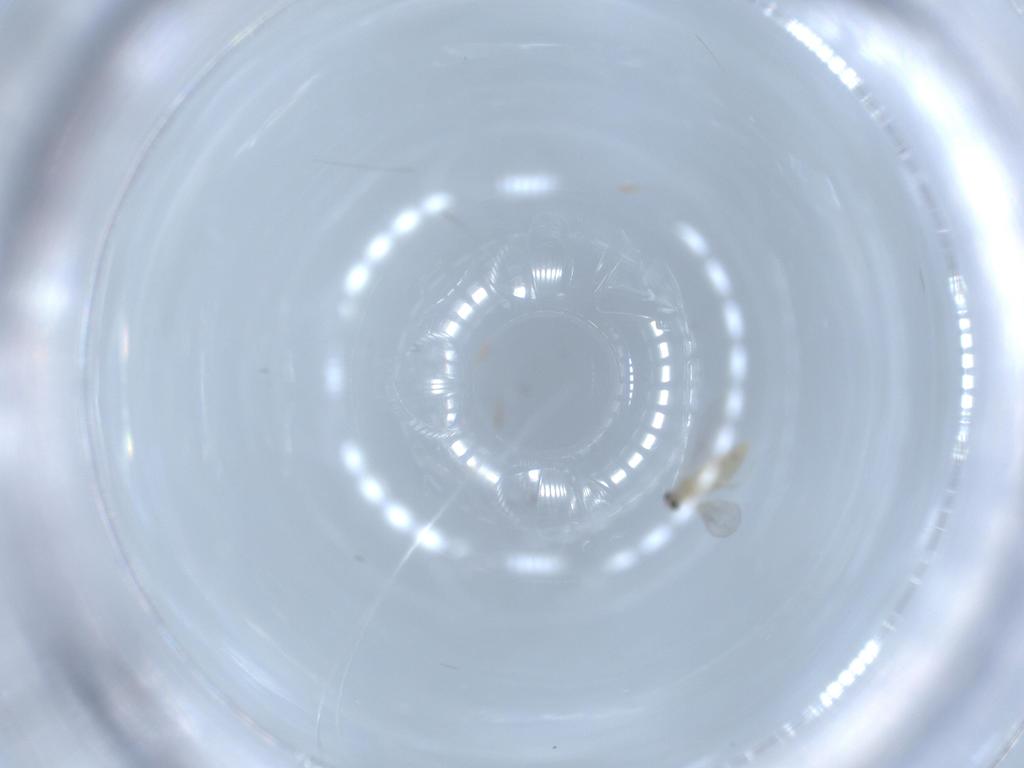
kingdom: Animalia
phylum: Arthropoda
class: Insecta
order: Diptera
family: Cecidomyiidae
